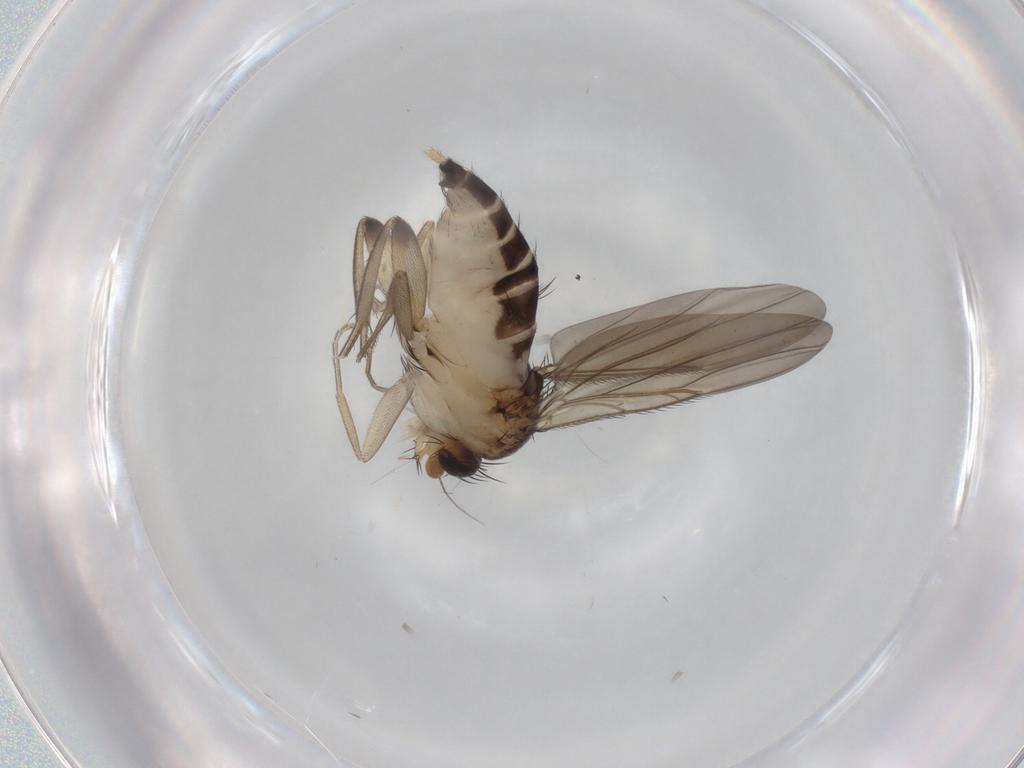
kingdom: Animalia
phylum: Arthropoda
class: Insecta
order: Diptera
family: Phoridae
